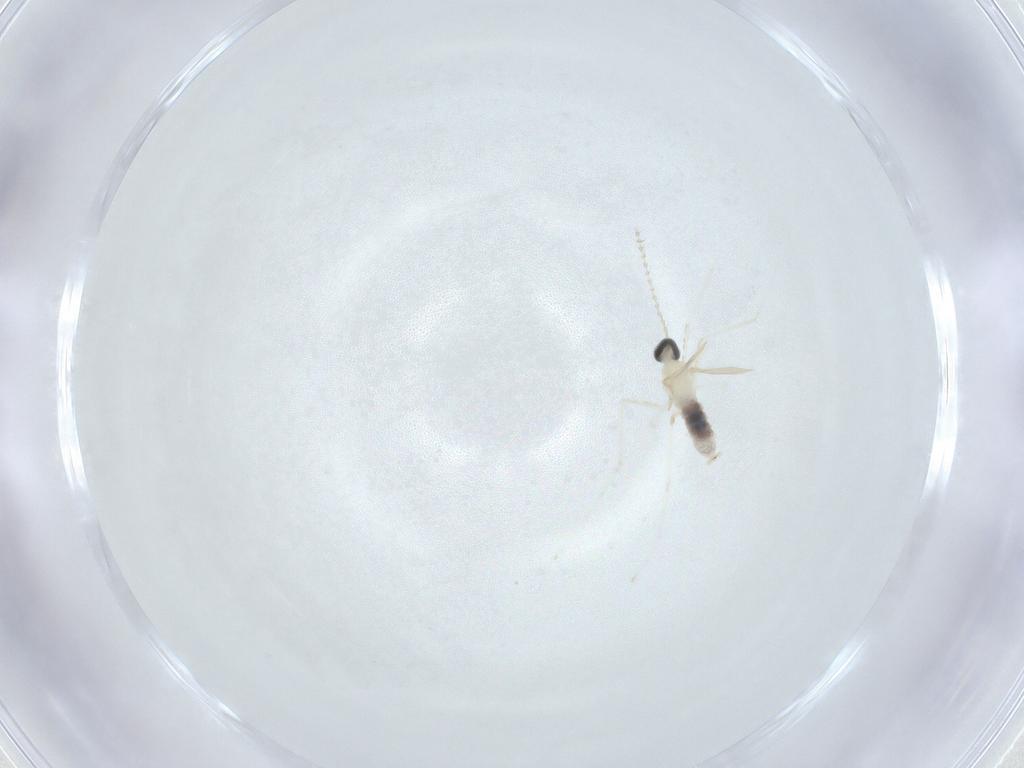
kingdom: Animalia
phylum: Arthropoda
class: Insecta
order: Diptera
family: Cecidomyiidae
